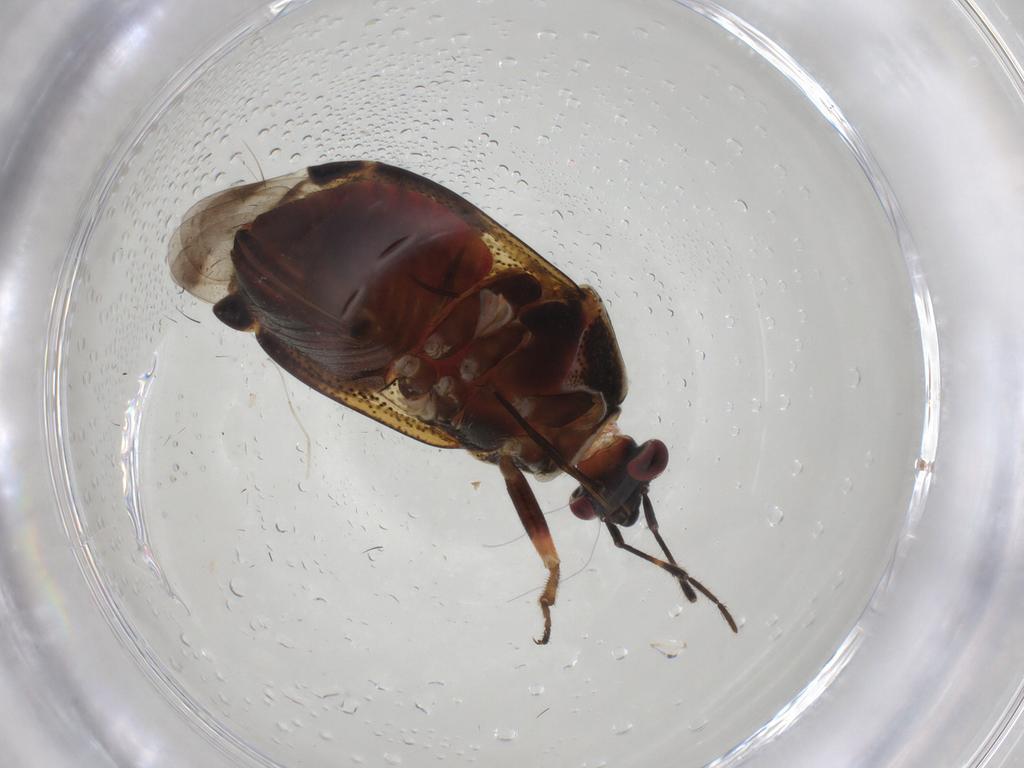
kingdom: Animalia
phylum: Arthropoda
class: Insecta
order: Hemiptera
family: Miridae
